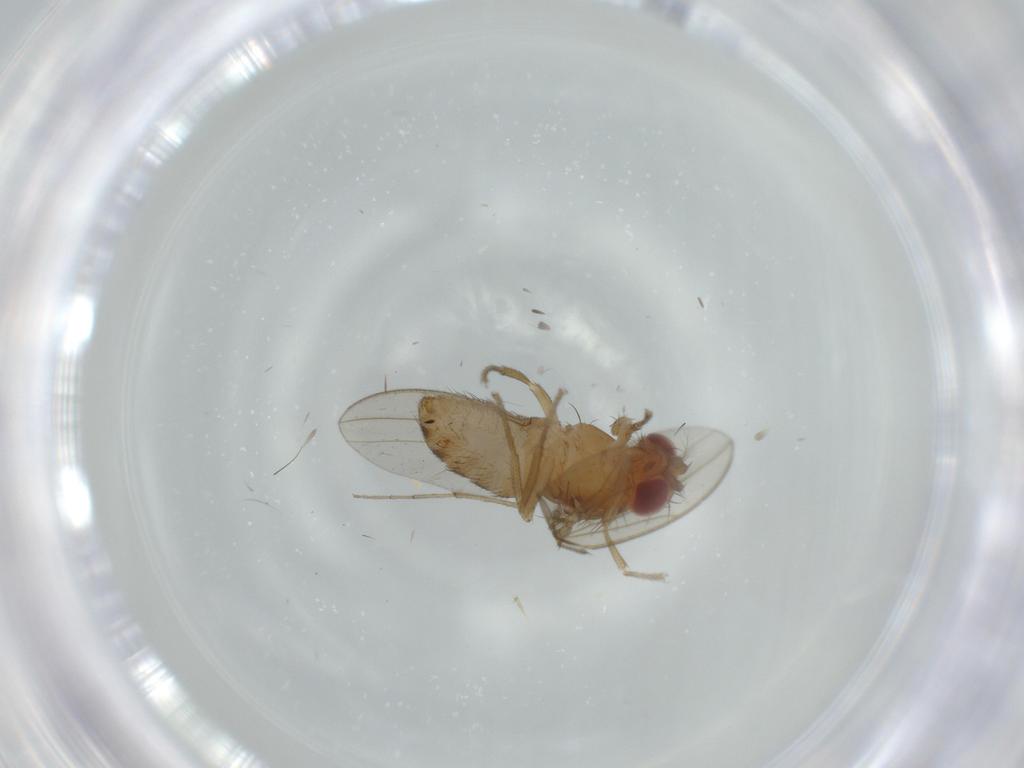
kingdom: Animalia
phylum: Arthropoda
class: Insecta
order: Diptera
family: Drosophilidae
